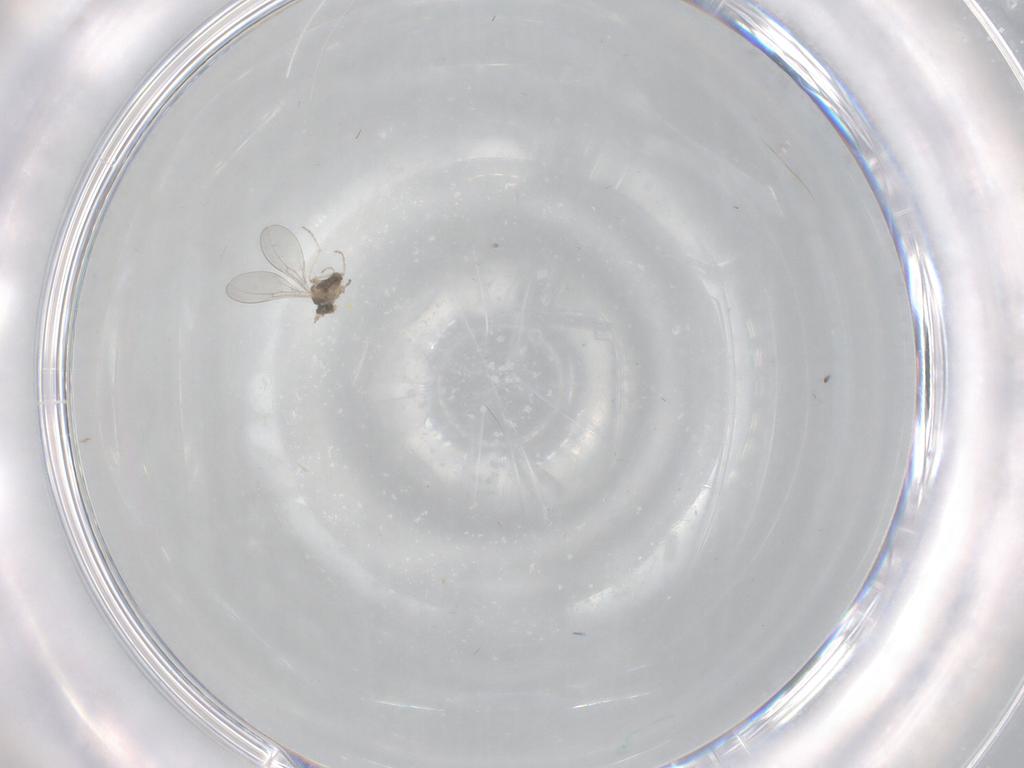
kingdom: Animalia
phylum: Arthropoda
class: Insecta
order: Diptera
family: Cecidomyiidae
